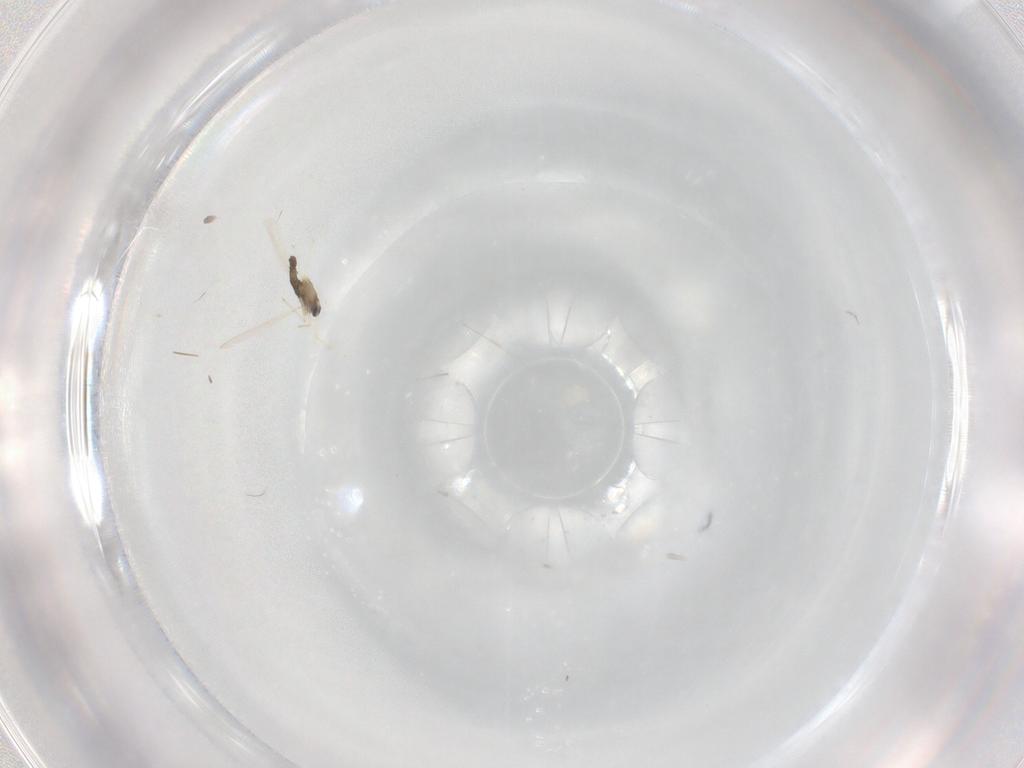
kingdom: Animalia
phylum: Arthropoda
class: Insecta
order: Diptera
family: Chironomidae
